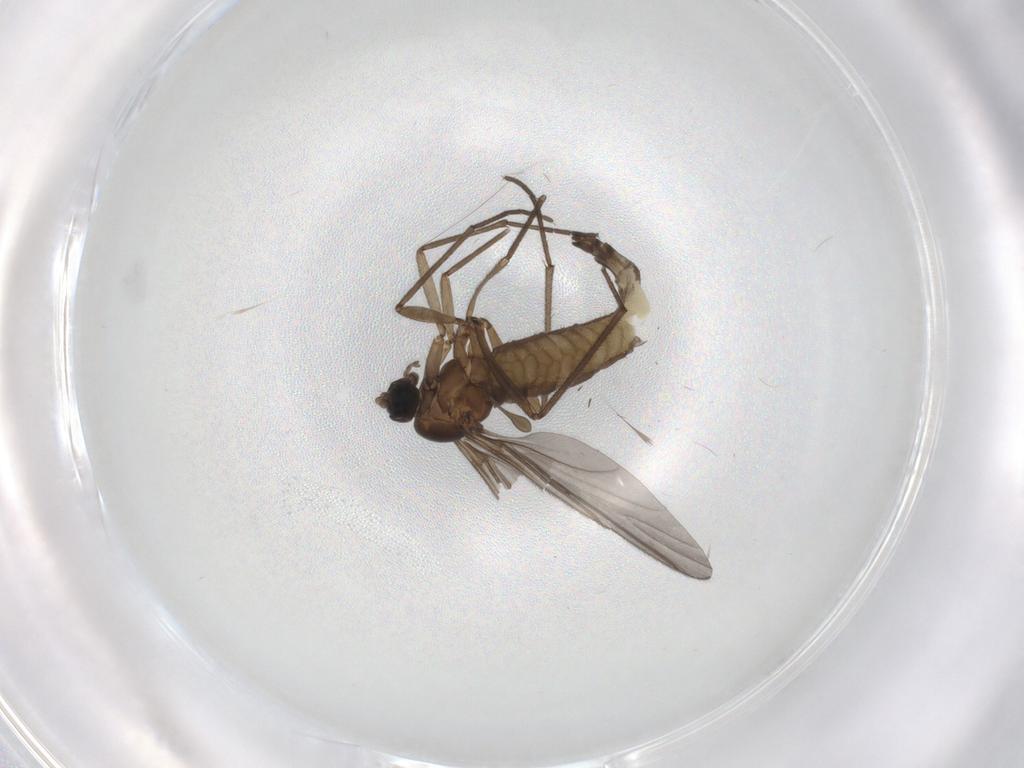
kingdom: Animalia
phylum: Arthropoda
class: Insecta
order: Diptera
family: Sciaridae
